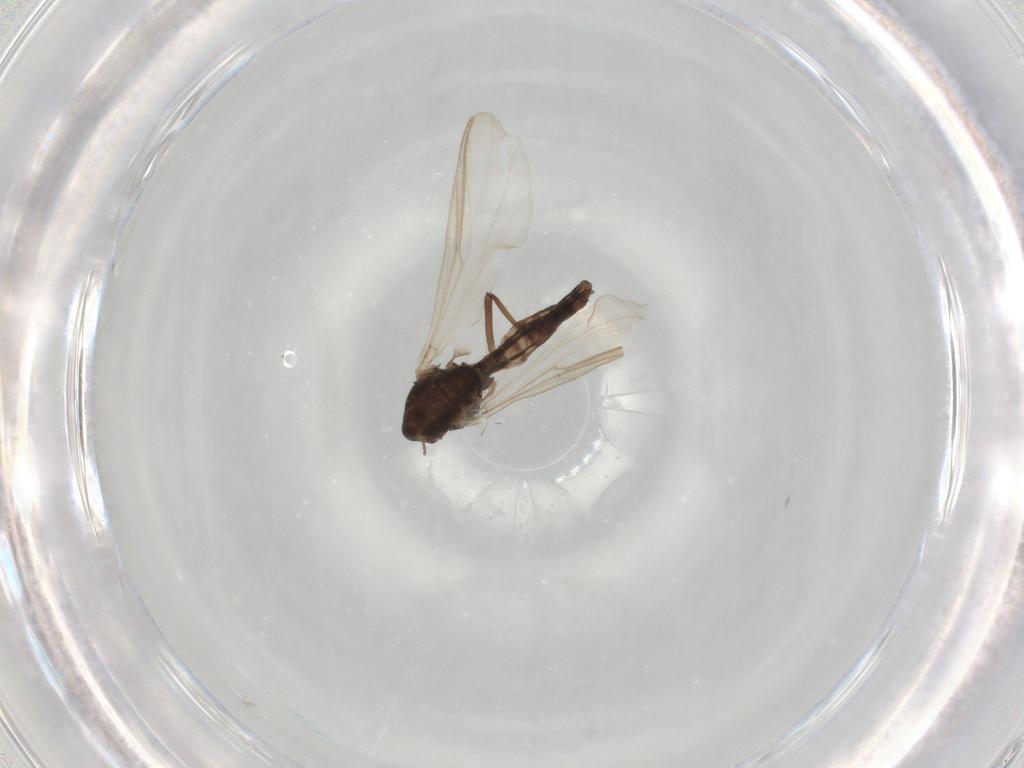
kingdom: Animalia
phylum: Arthropoda
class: Insecta
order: Diptera
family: Chironomidae
